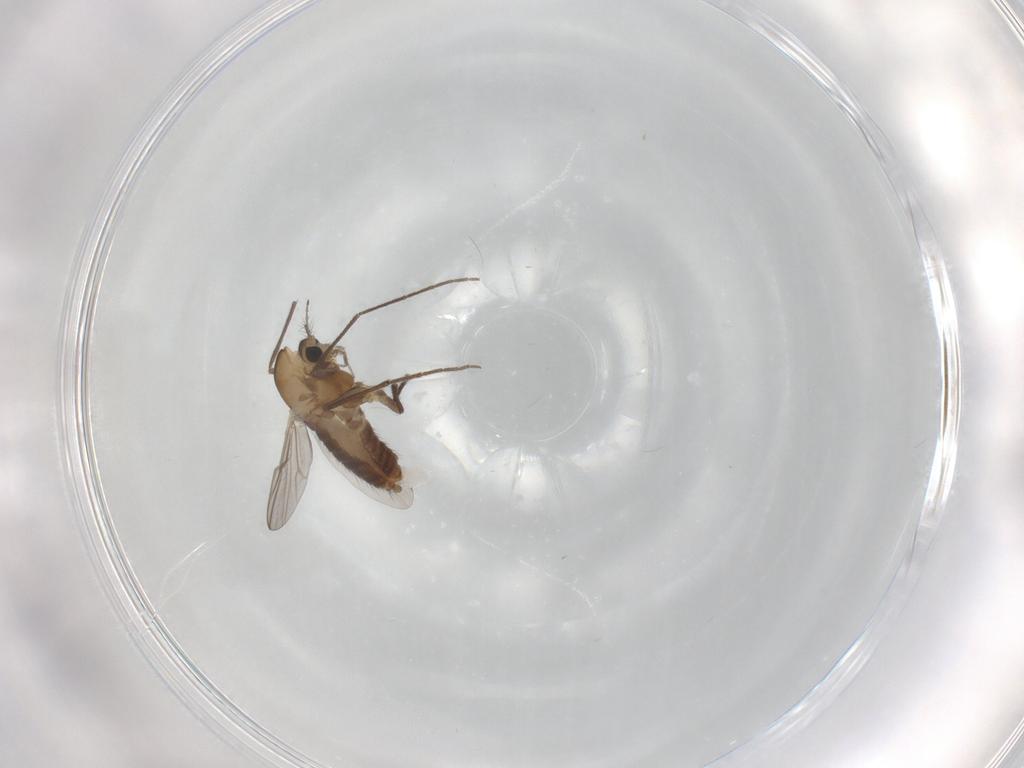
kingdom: Animalia
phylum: Arthropoda
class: Insecta
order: Diptera
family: Chironomidae
